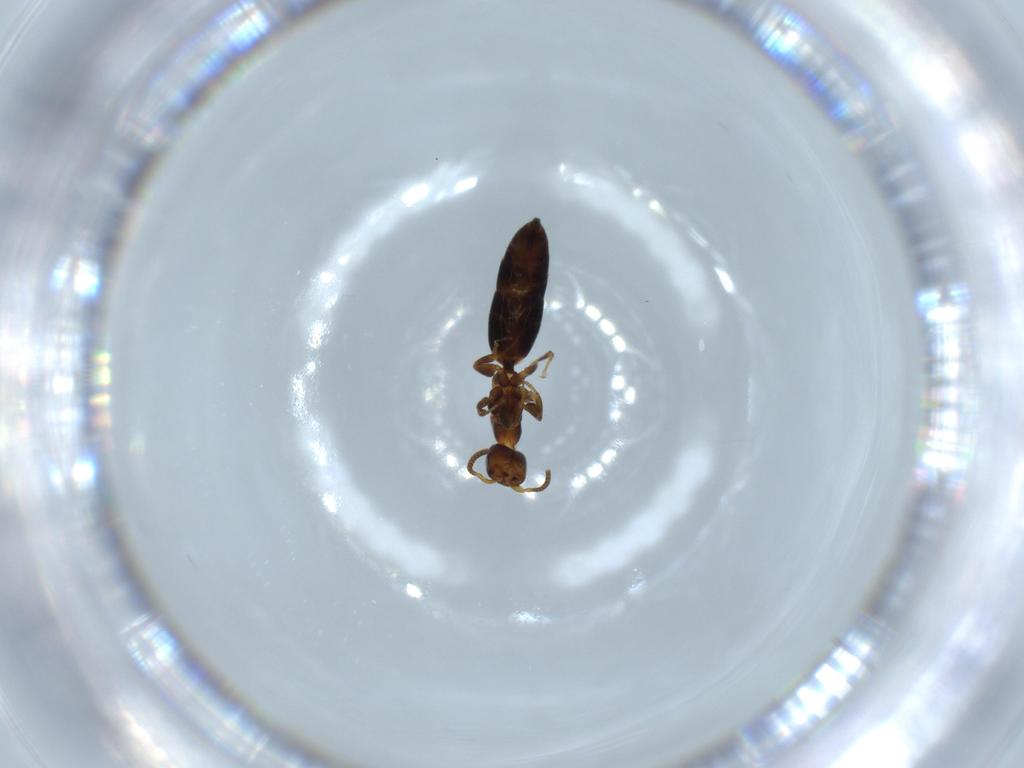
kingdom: Animalia
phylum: Arthropoda
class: Insecta
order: Hymenoptera
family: Bethylidae
